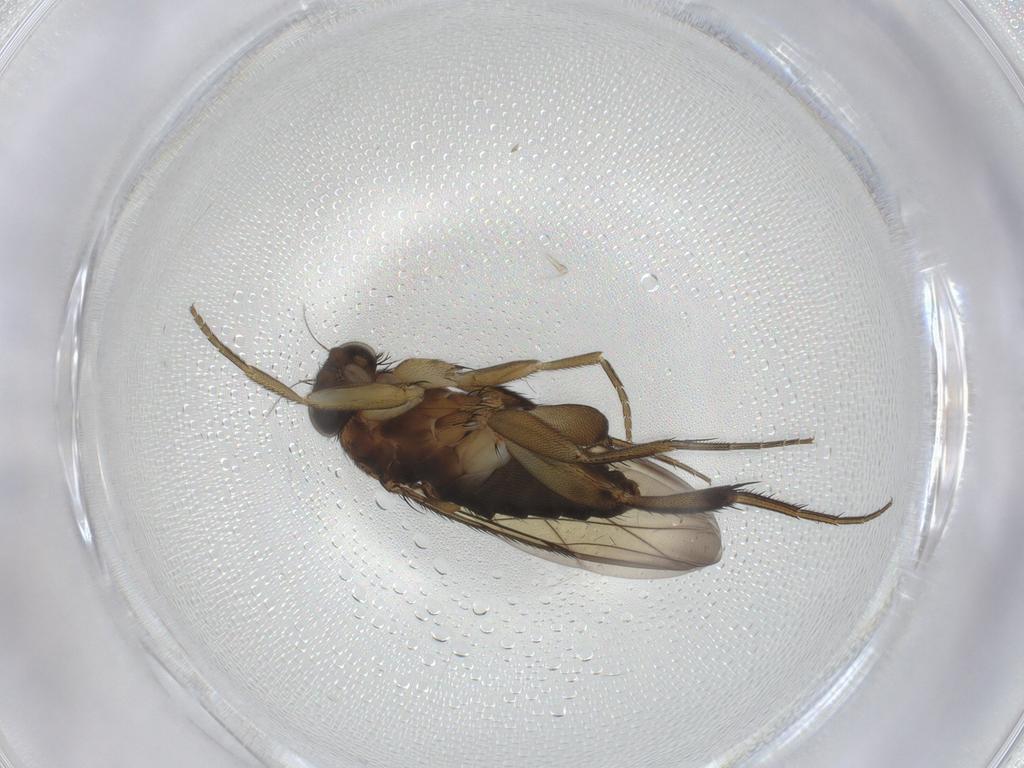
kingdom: Animalia
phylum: Arthropoda
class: Insecta
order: Diptera
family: Phoridae
